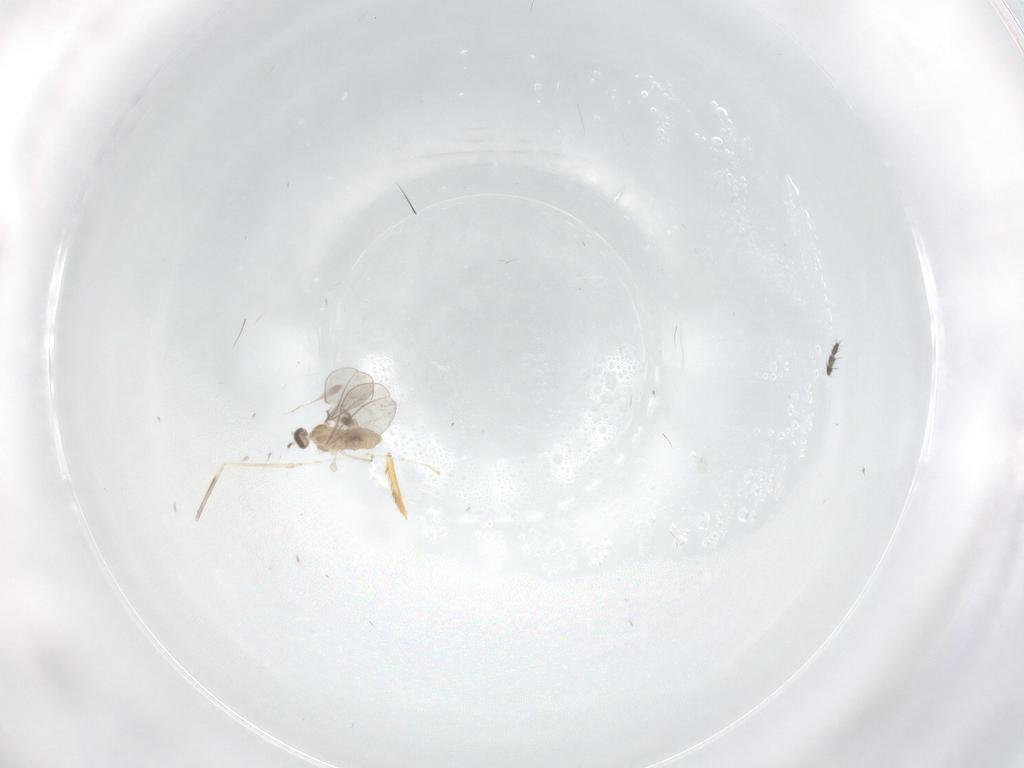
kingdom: Animalia
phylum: Arthropoda
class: Insecta
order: Diptera
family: Cecidomyiidae
